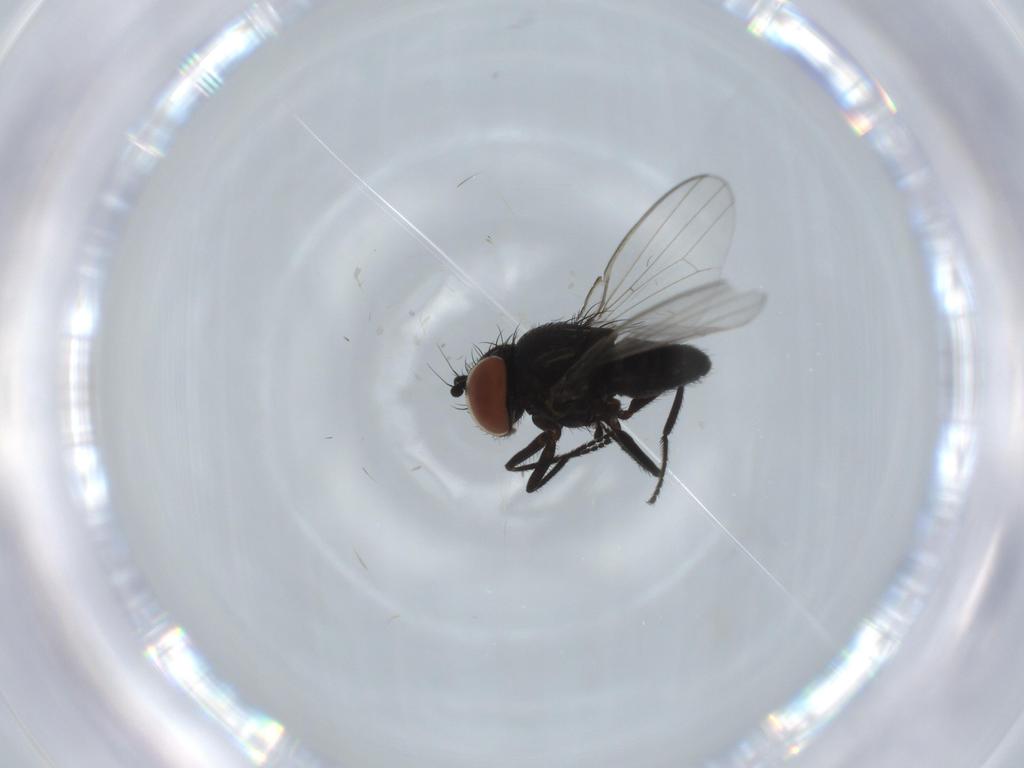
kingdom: Animalia
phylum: Arthropoda
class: Insecta
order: Diptera
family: Milichiidae
